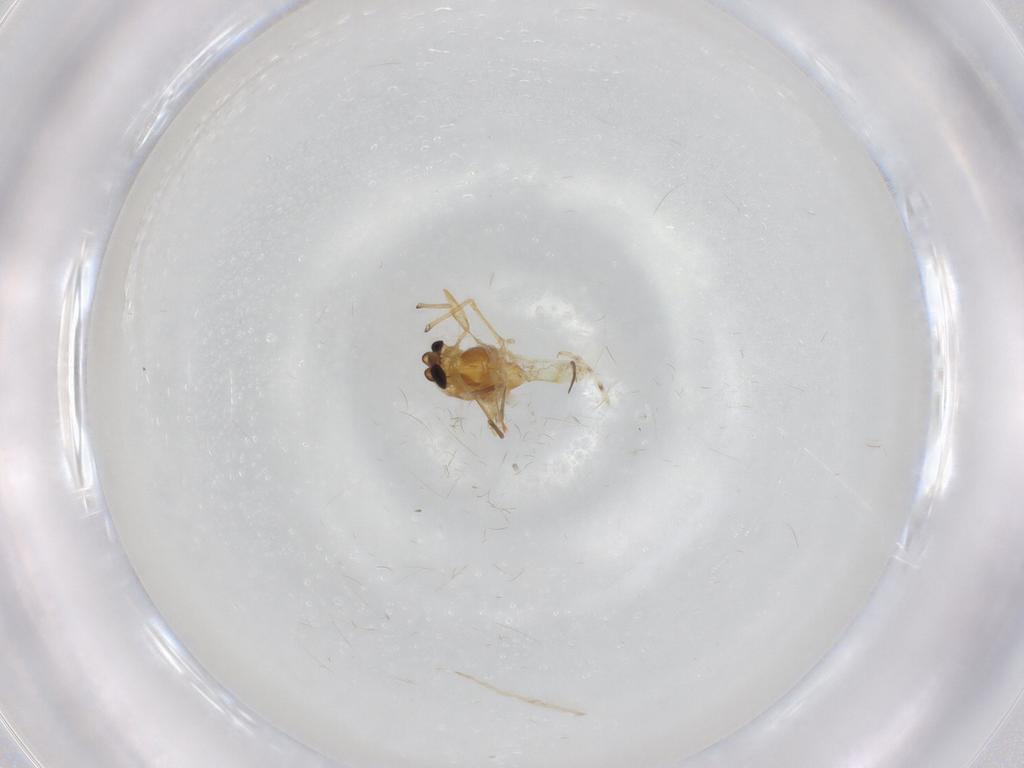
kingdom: Animalia
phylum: Arthropoda
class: Insecta
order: Diptera
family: Chironomidae
